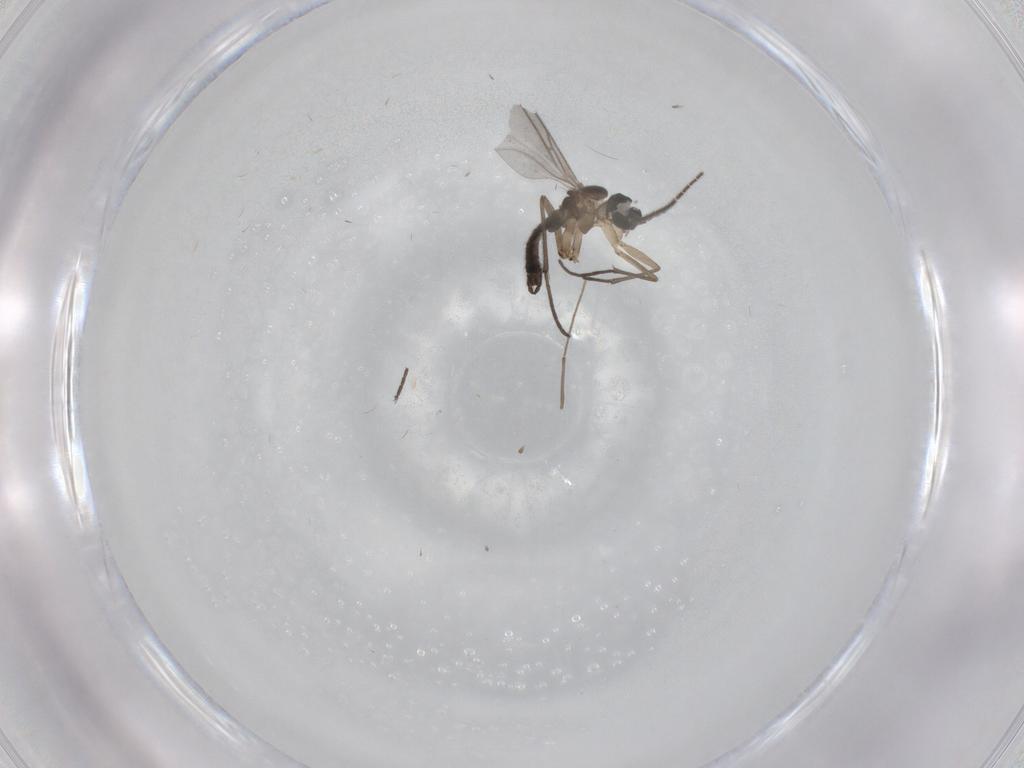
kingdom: Animalia
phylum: Arthropoda
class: Insecta
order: Diptera
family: Sciaridae
